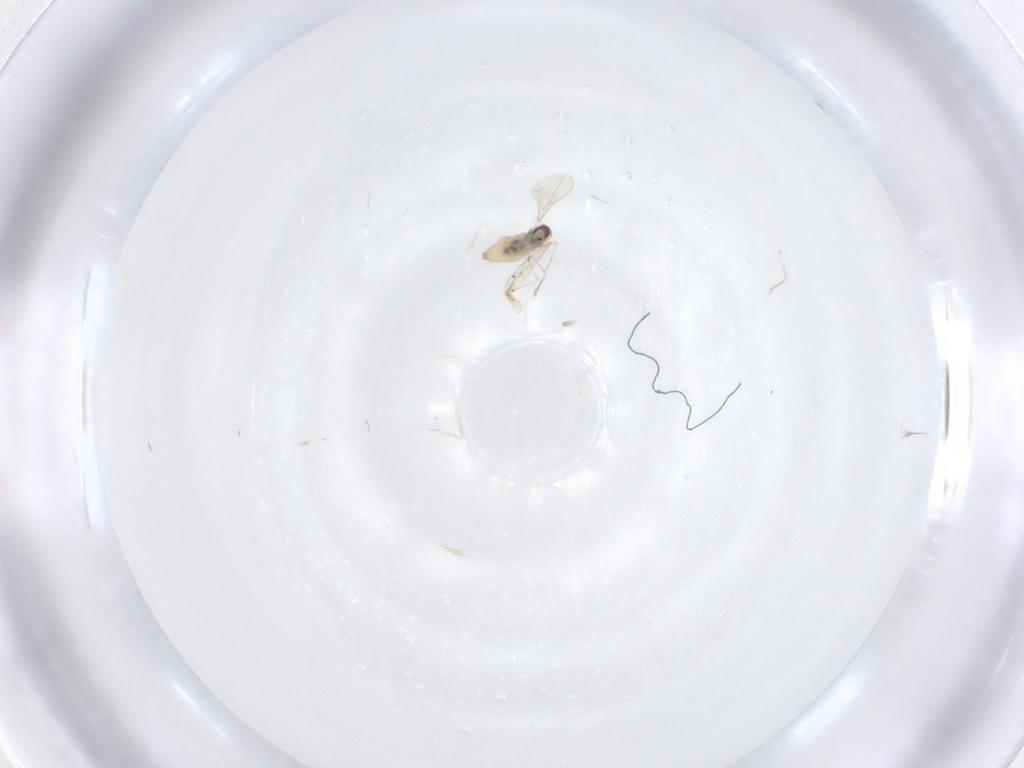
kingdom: Animalia
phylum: Arthropoda
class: Insecta
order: Diptera
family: Cecidomyiidae
